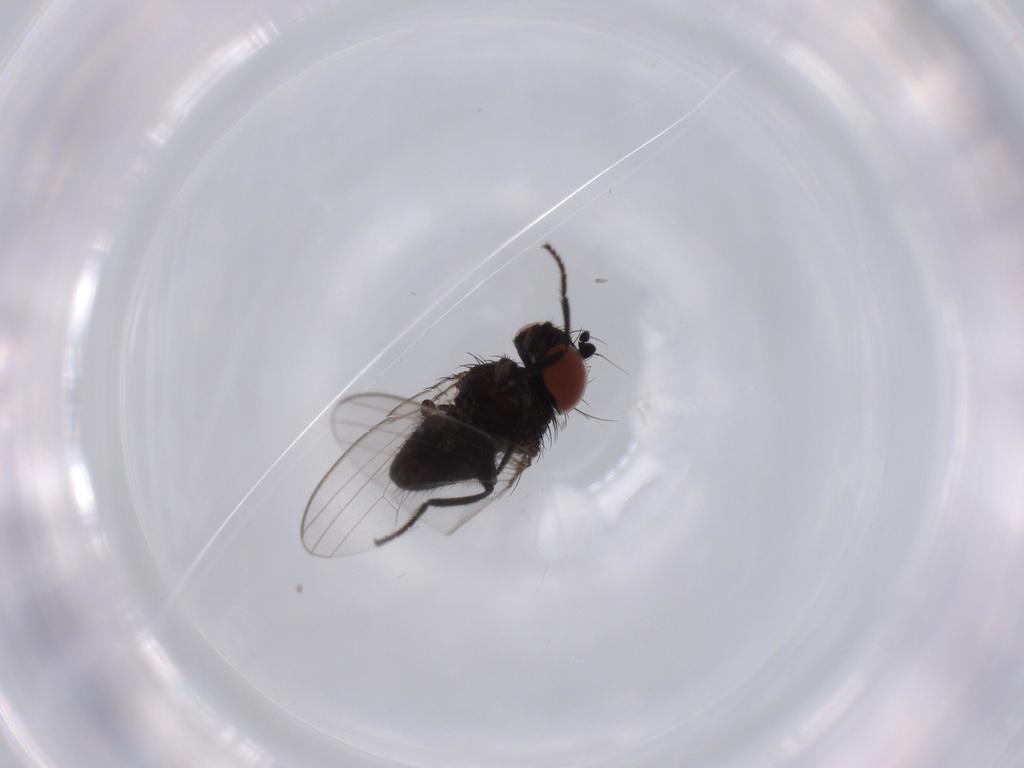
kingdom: Animalia
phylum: Arthropoda
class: Insecta
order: Diptera
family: Milichiidae
